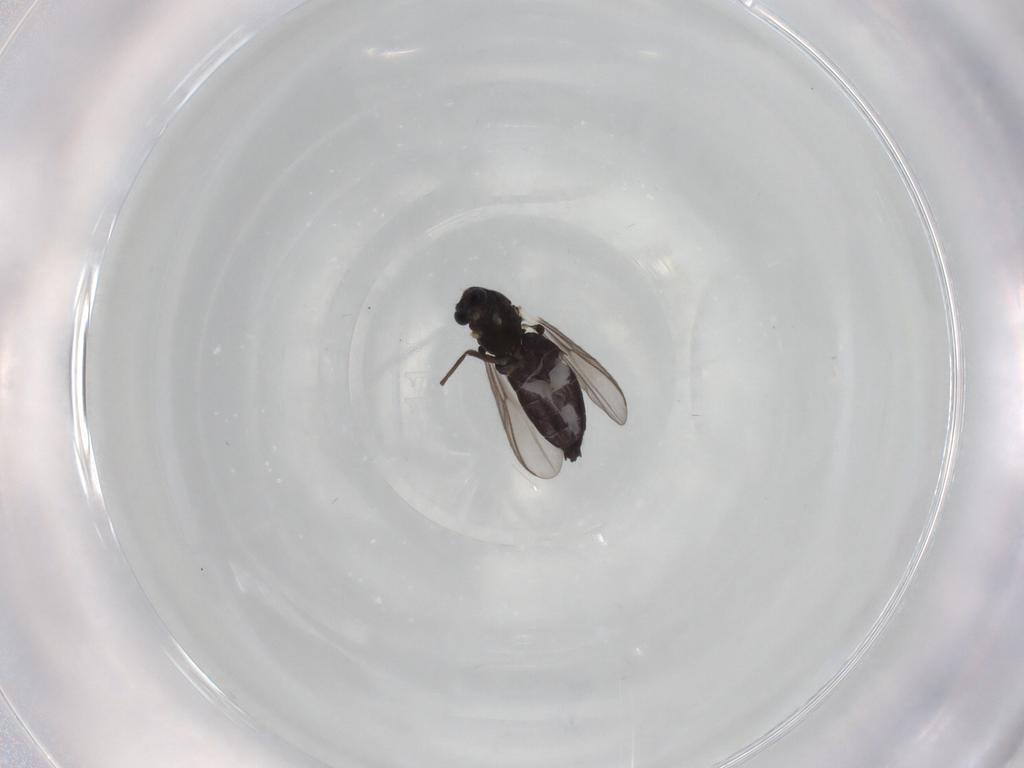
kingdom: Animalia
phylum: Arthropoda
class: Insecta
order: Diptera
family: Chironomidae
